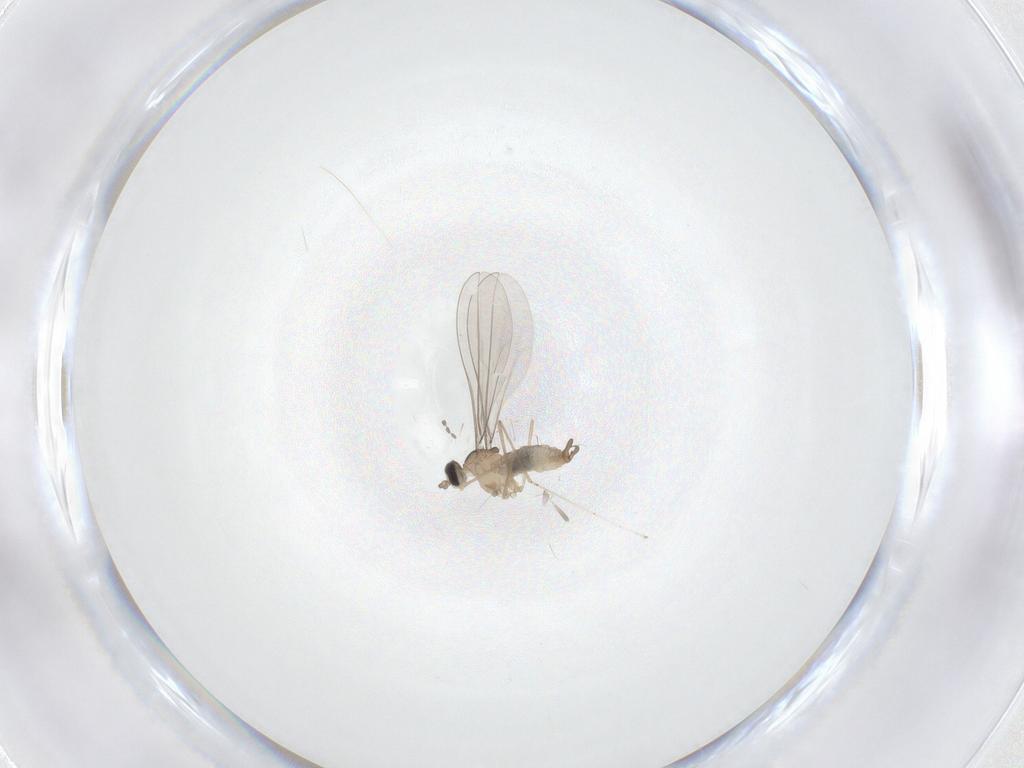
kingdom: Animalia
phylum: Arthropoda
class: Insecta
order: Diptera
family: Cecidomyiidae
